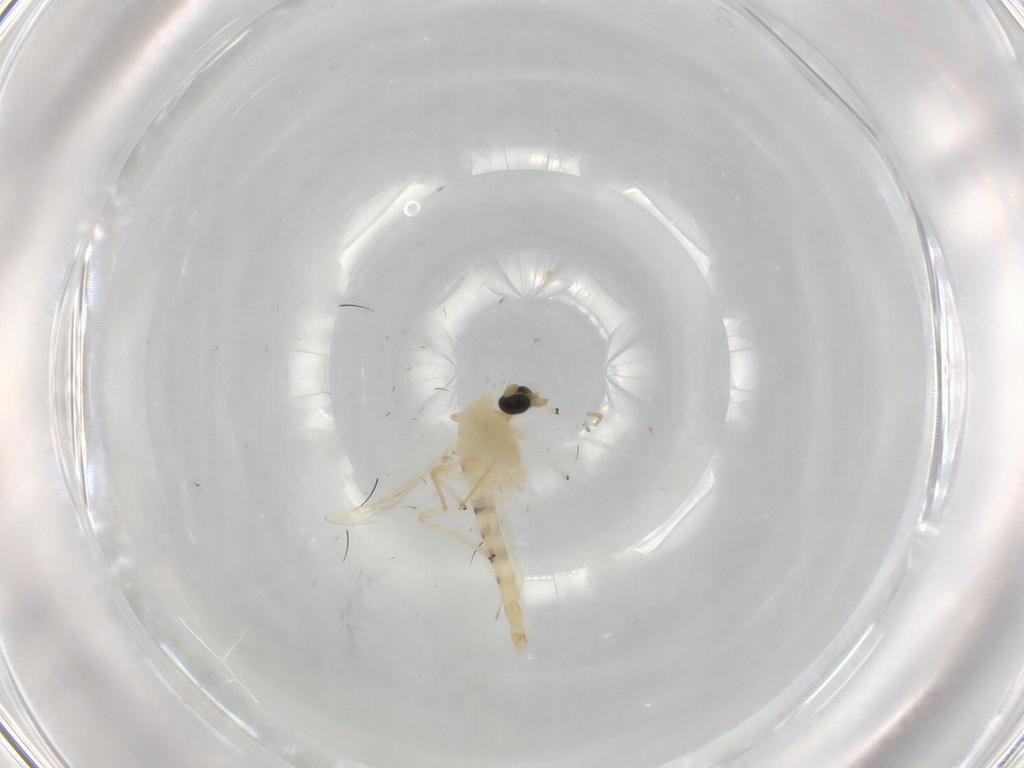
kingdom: Animalia
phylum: Arthropoda
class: Insecta
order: Diptera
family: Chironomidae
